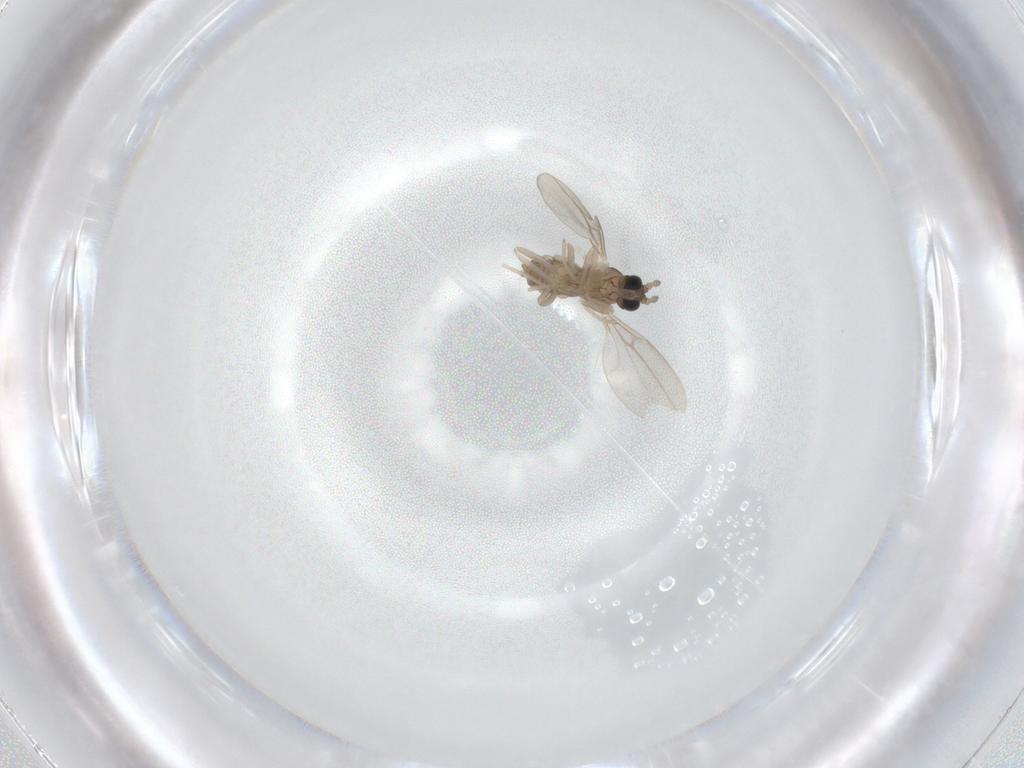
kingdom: Animalia
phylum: Arthropoda
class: Insecta
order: Diptera
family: Cecidomyiidae
